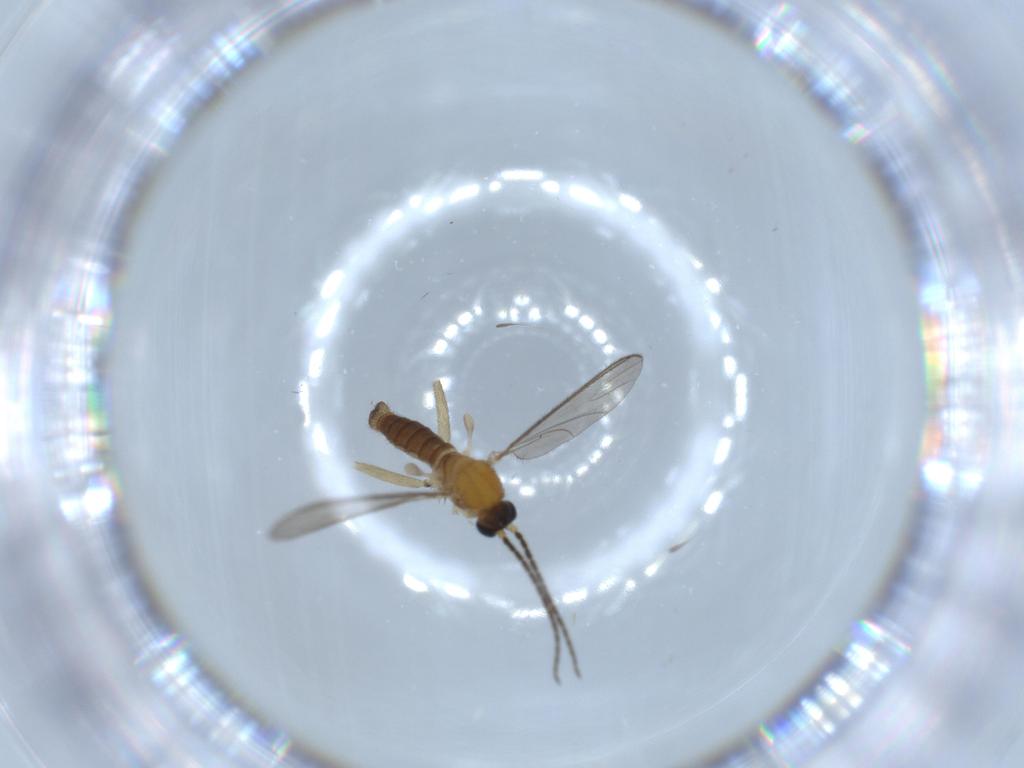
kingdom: Animalia
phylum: Arthropoda
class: Insecta
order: Diptera
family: Sciaridae
